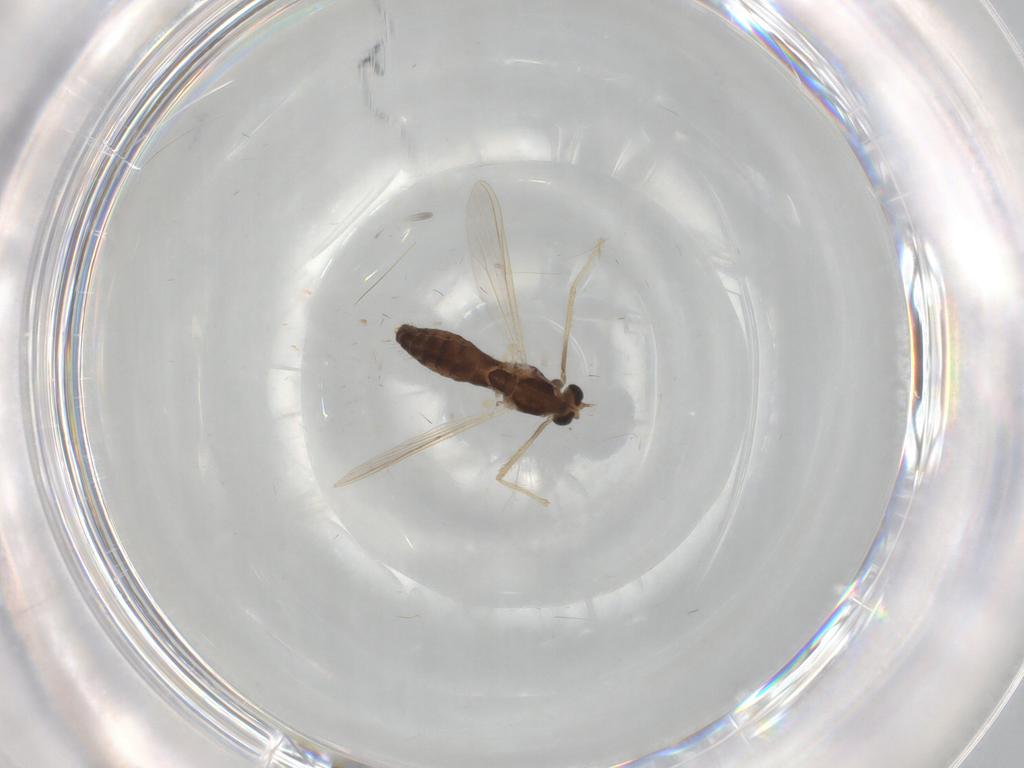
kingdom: Animalia
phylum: Arthropoda
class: Insecta
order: Diptera
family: Chironomidae
